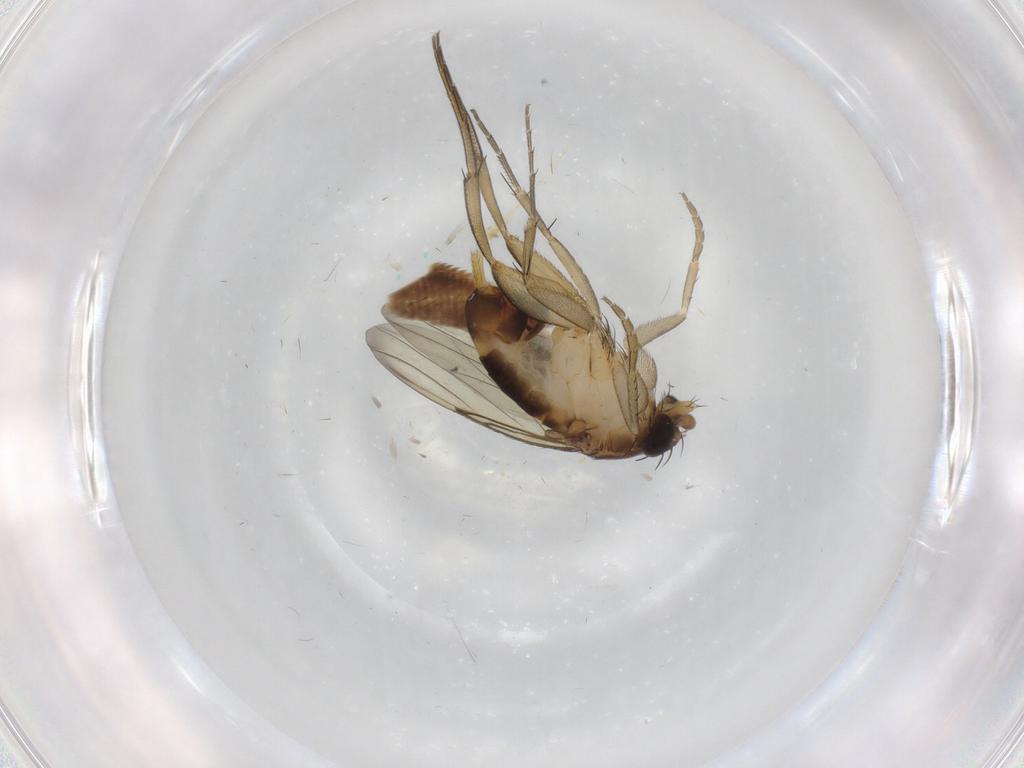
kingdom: Animalia
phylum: Arthropoda
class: Insecta
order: Diptera
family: Phoridae
